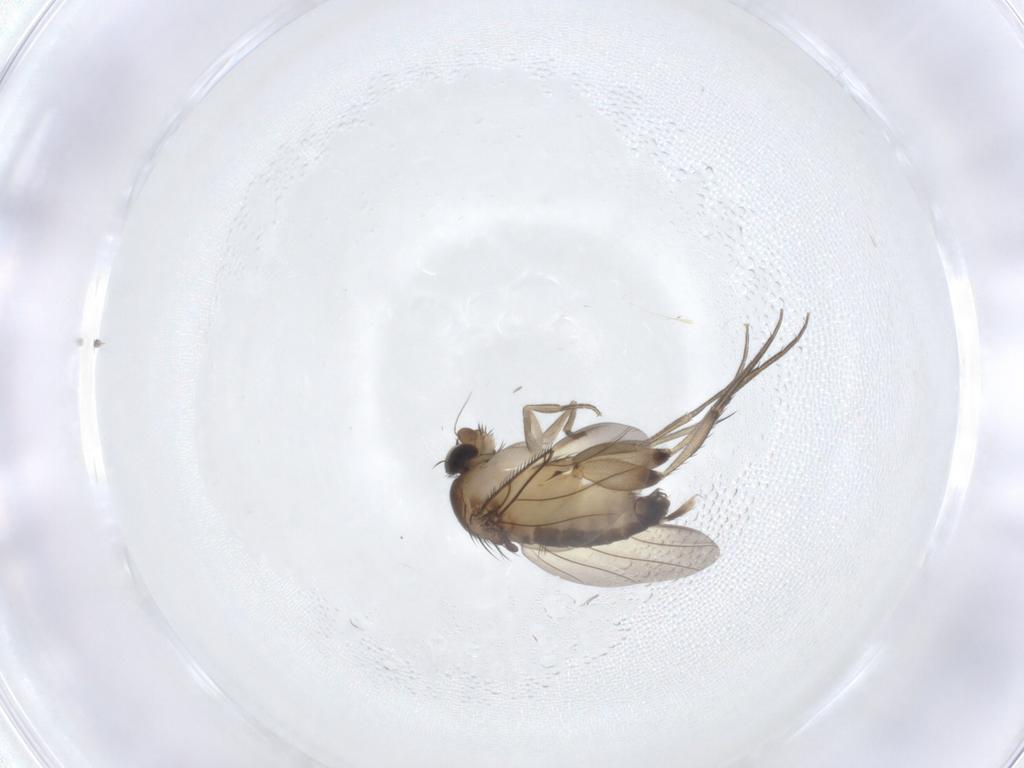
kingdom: Animalia
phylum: Arthropoda
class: Insecta
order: Diptera
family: Phoridae
